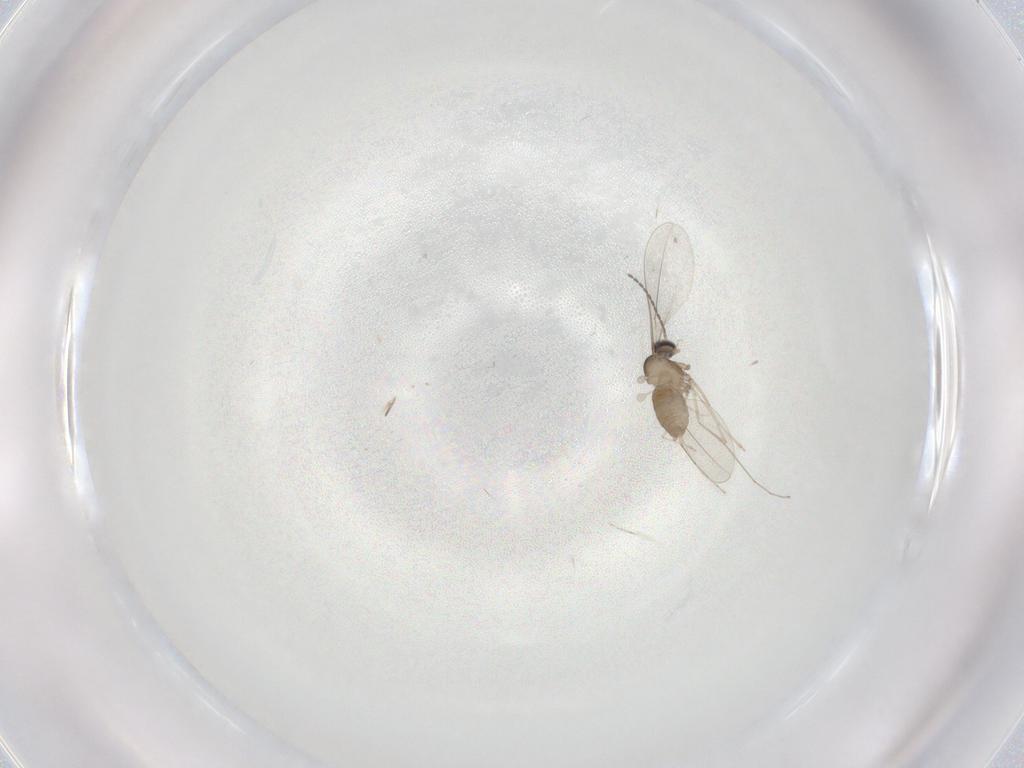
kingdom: Animalia
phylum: Arthropoda
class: Insecta
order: Diptera
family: Cecidomyiidae
